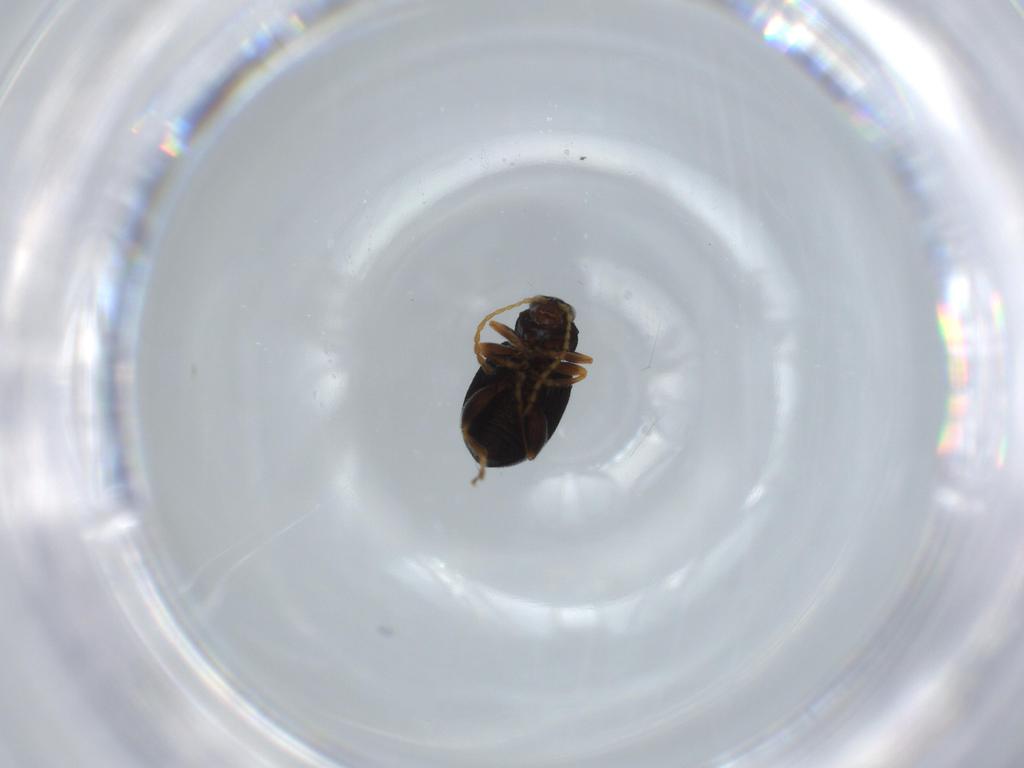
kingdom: Animalia
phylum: Arthropoda
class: Insecta
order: Coleoptera
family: Chrysomelidae
